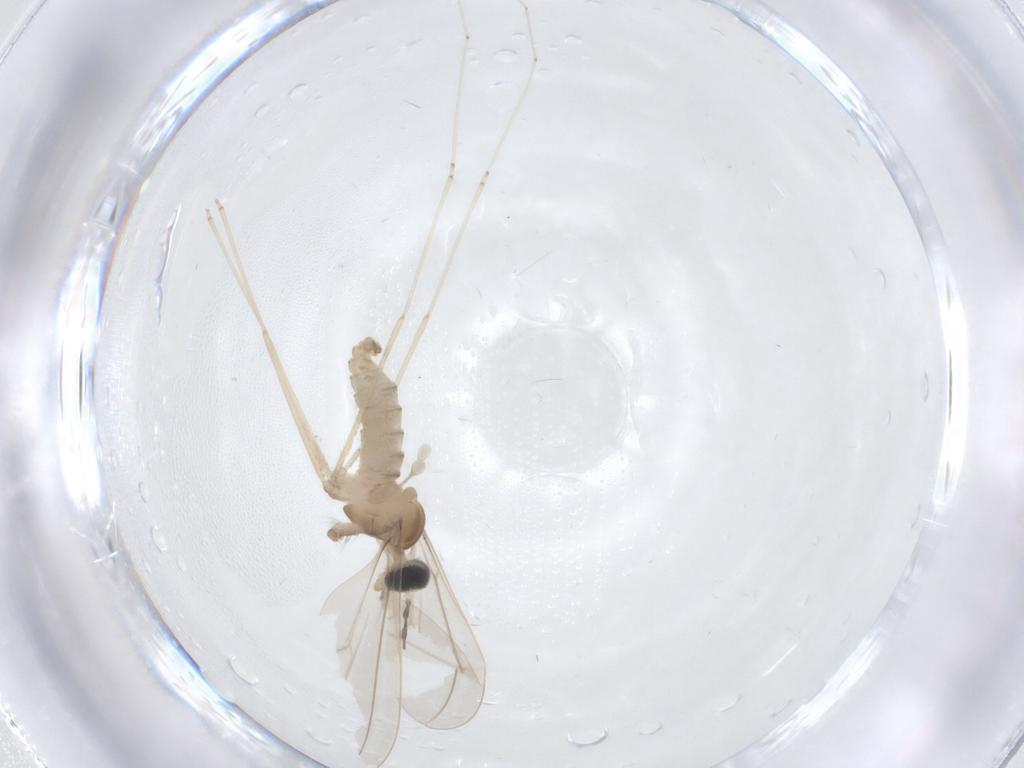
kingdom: Animalia
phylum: Arthropoda
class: Insecta
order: Diptera
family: Cecidomyiidae
